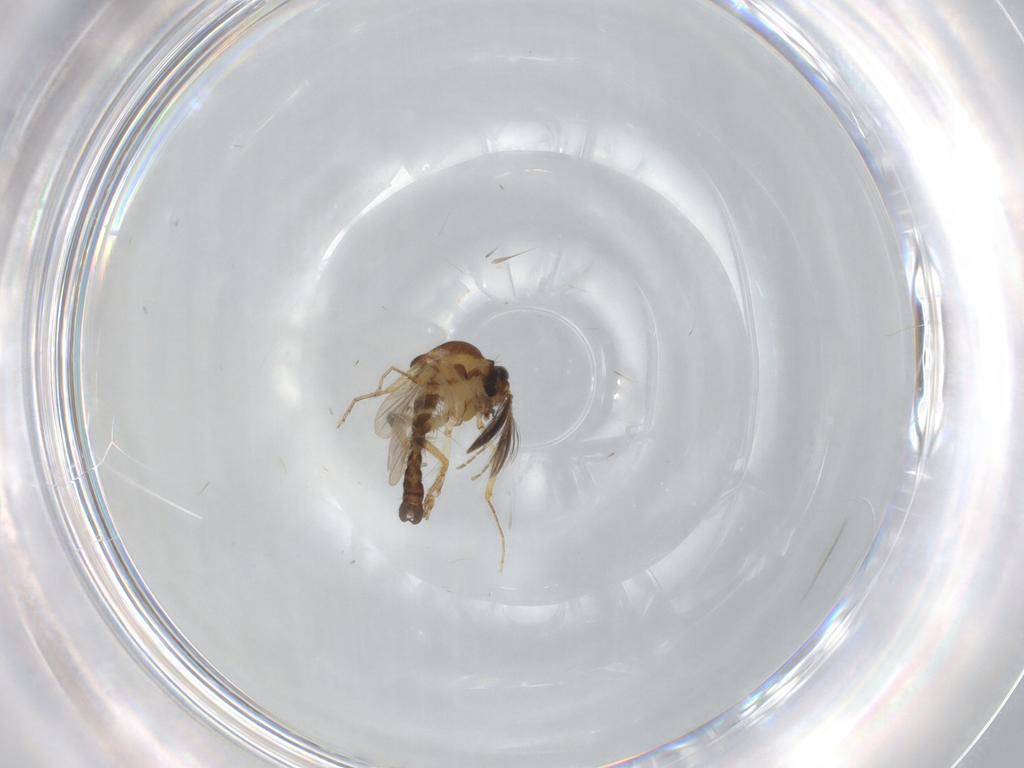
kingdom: Animalia
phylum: Arthropoda
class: Insecta
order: Diptera
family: Ceratopogonidae
